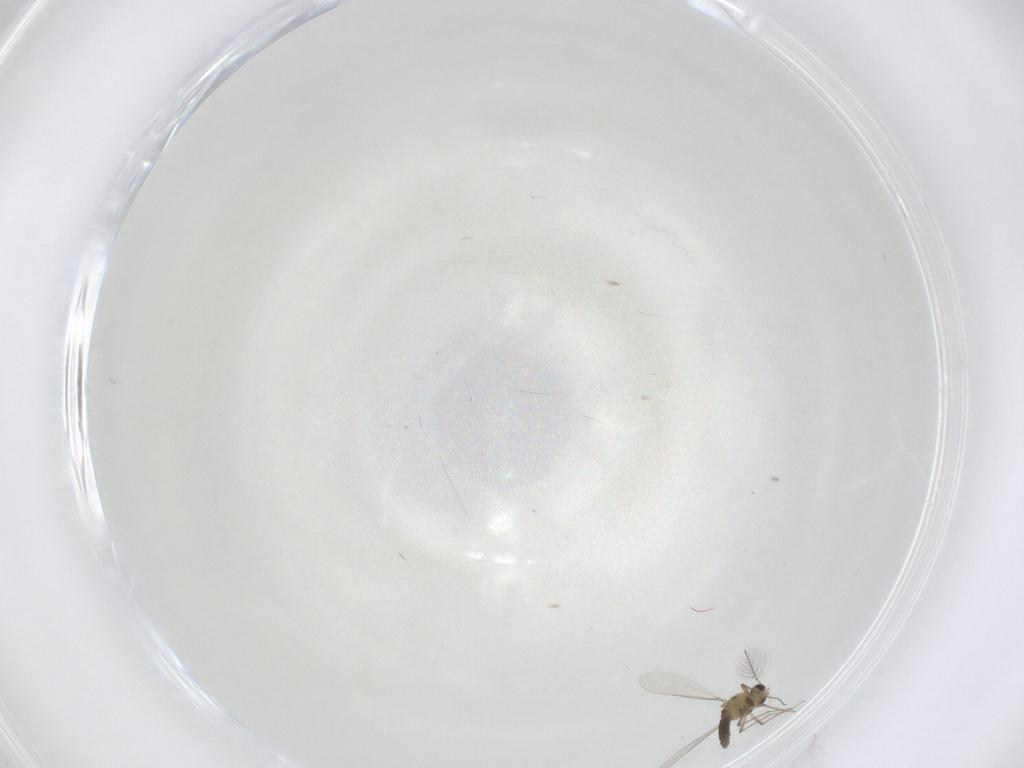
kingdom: Animalia
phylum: Arthropoda
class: Insecta
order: Diptera
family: Chironomidae
